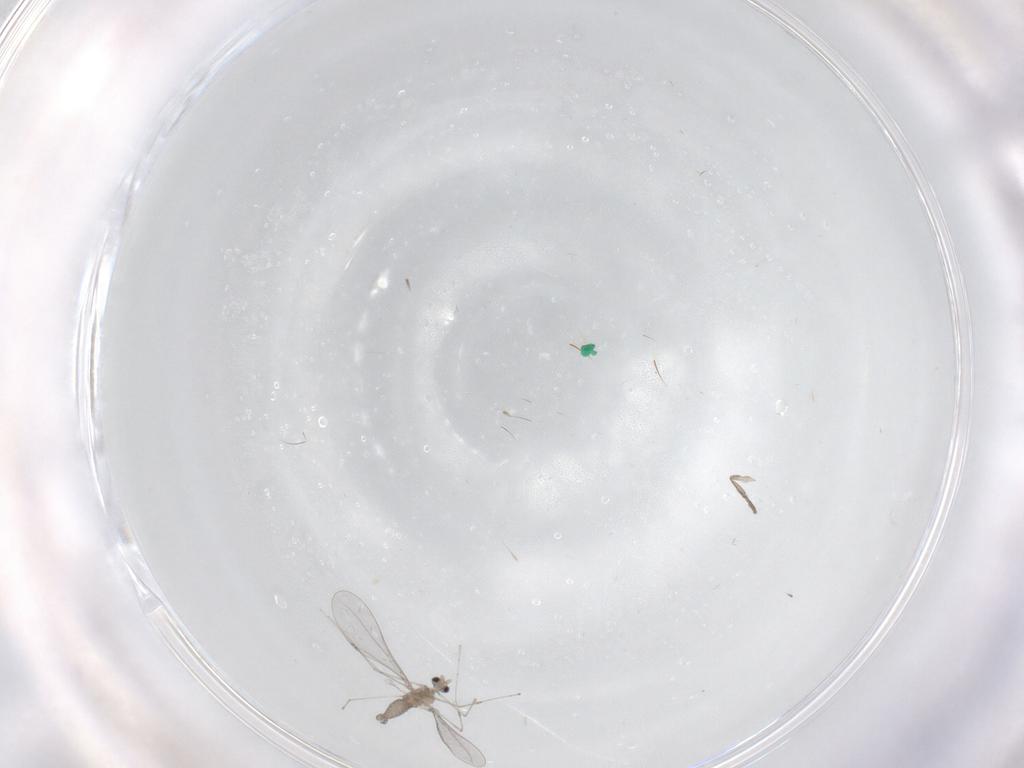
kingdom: Animalia
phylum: Arthropoda
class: Insecta
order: Diptera
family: Cecidomyiidae
